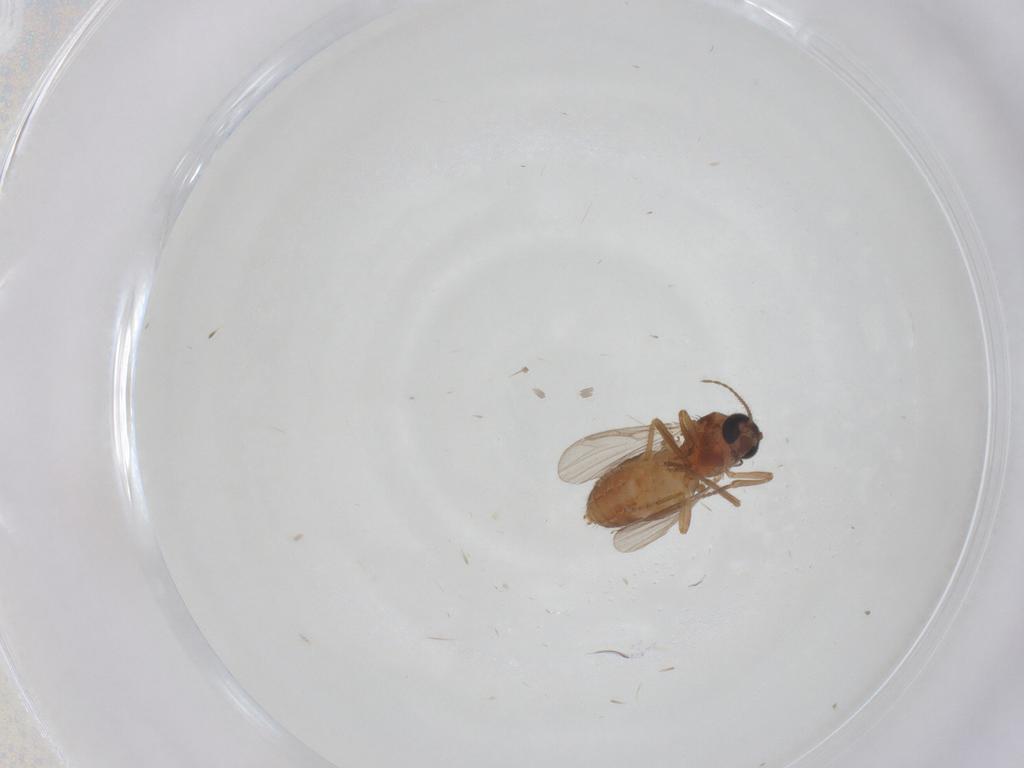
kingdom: Animalia
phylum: Arthropoda
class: Insecta
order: Diptera
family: Ceratopogonidae
